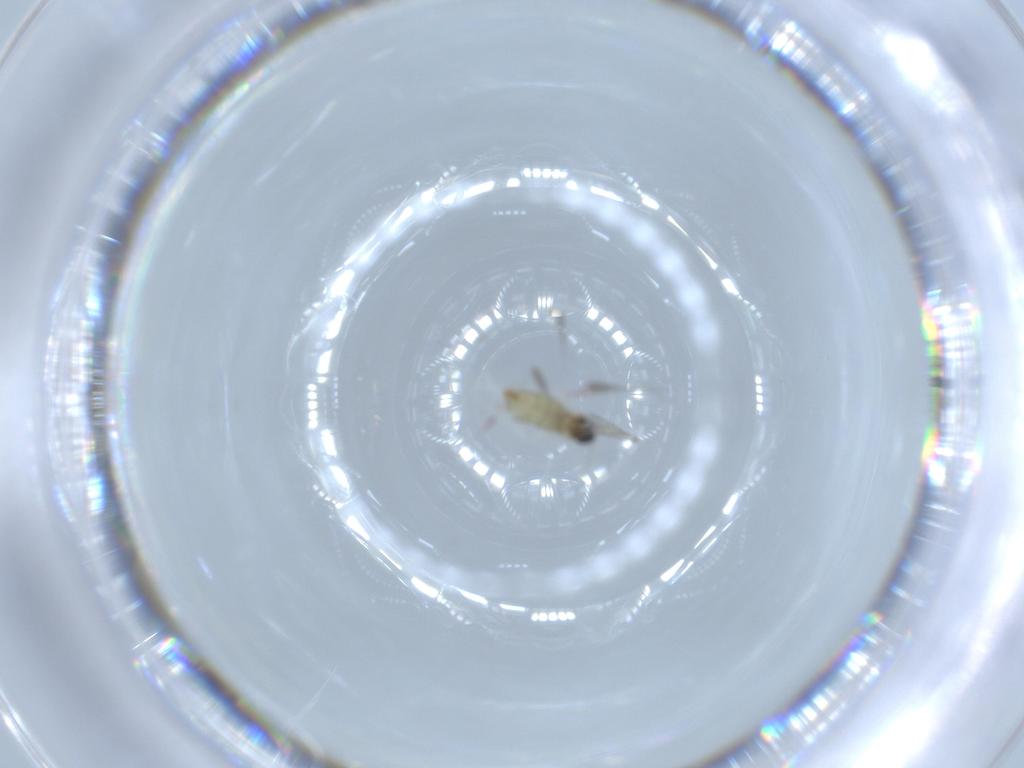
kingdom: Animalia
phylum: Arthropoda
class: Insecta
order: Diptera
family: Cecidomyiidae
